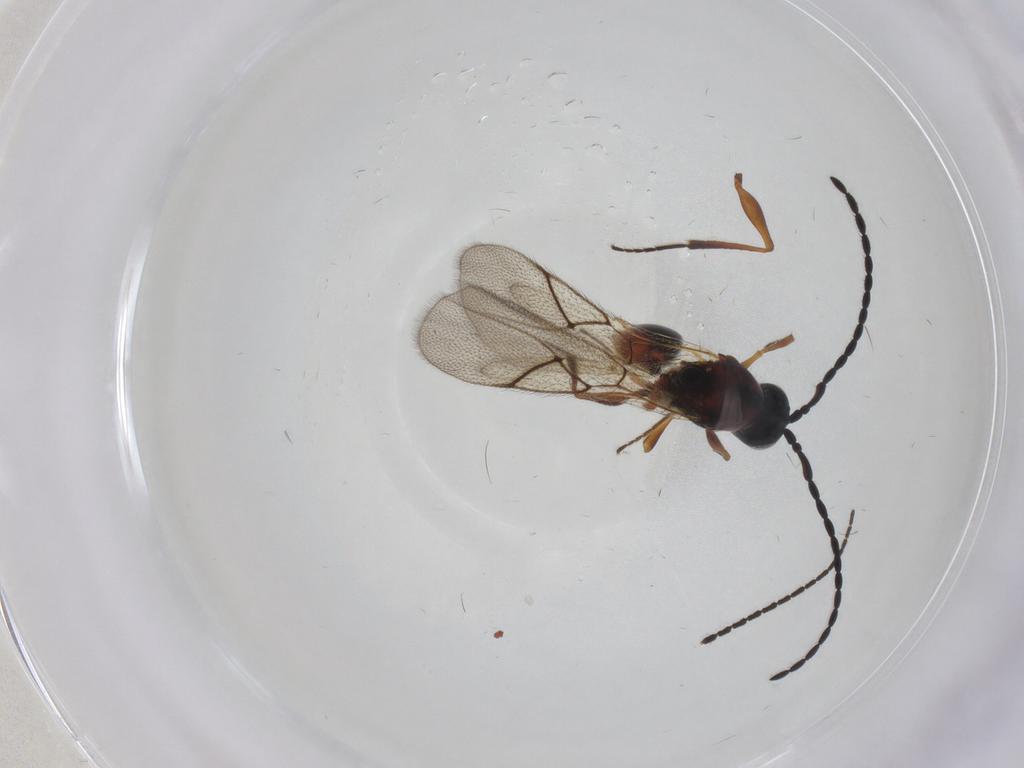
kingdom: Animalia
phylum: Arthropoda
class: Insecta
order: Hymenoptera
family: Figitidae
